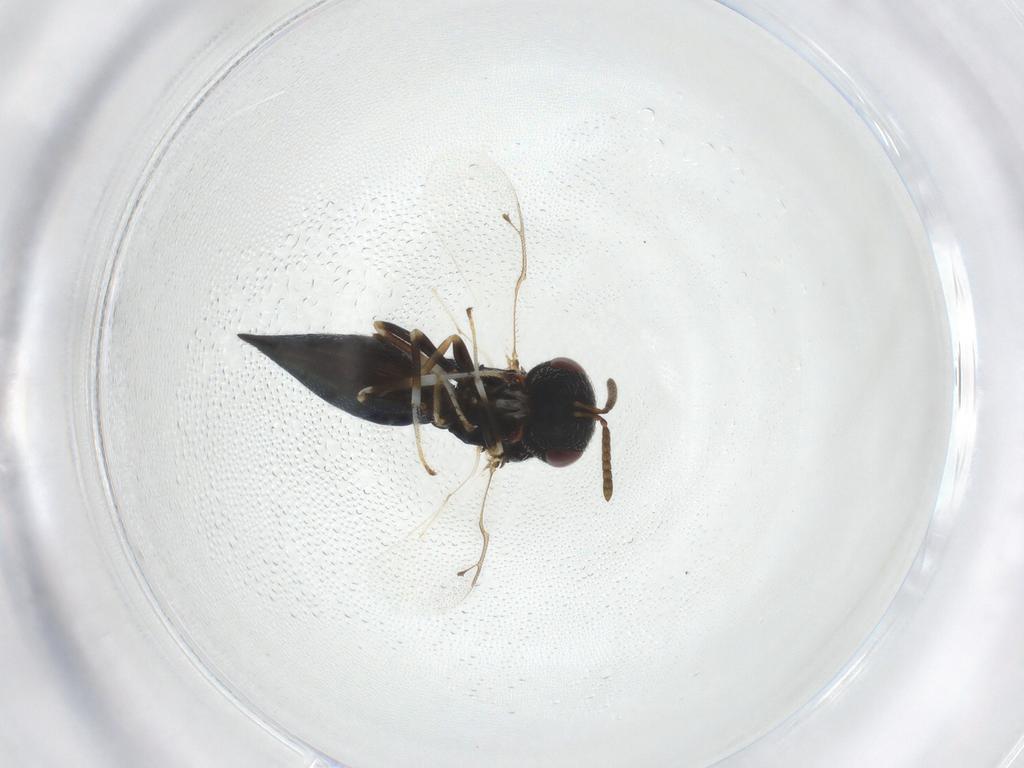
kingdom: Animalia
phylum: Arthropoda
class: Insecta
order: Hymenoptera
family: Pteromalidae
